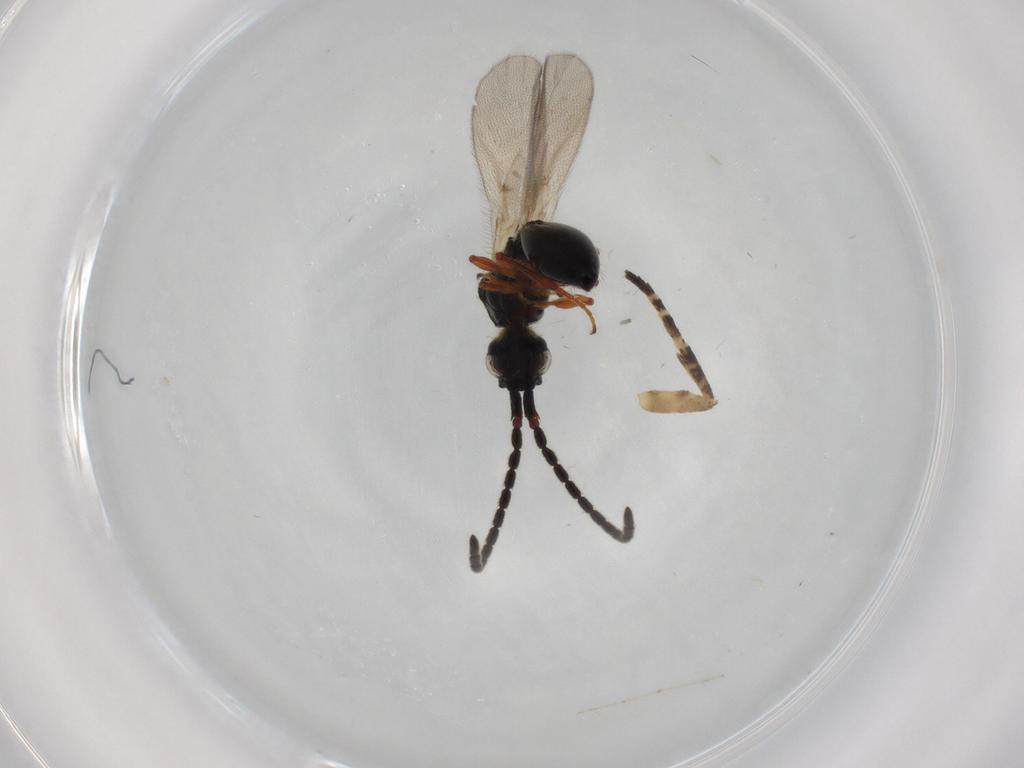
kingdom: Animalia
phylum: Arthropoda
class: Insecta
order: Hymenoptera
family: Diapriidae
